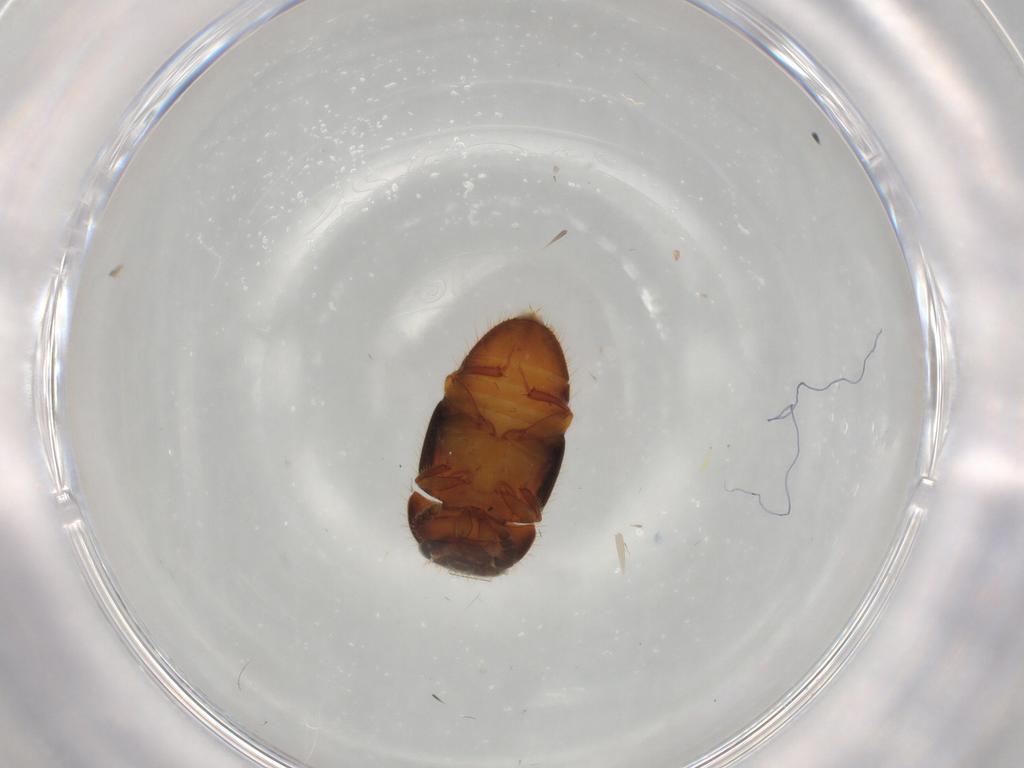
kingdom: Animalia
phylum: Arthropoda
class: Insecta
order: Coleoptera
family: Nitidulidae
